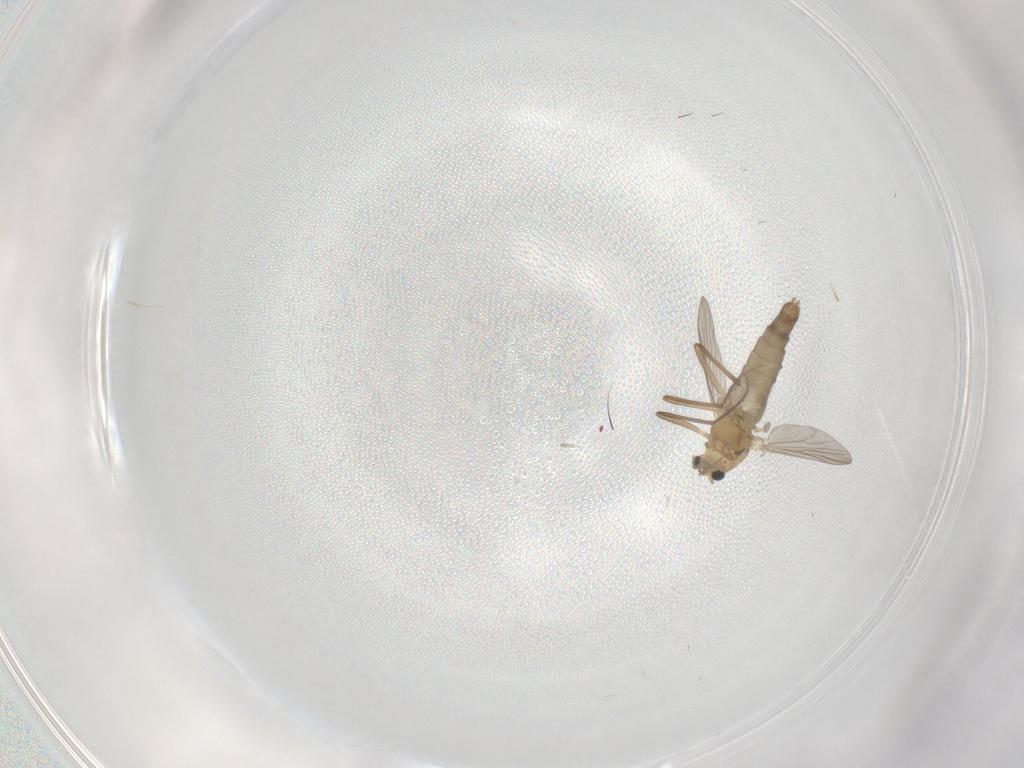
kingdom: Animalia
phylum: Arthropoda
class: Insecta
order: Diptera
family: Chironomidae
